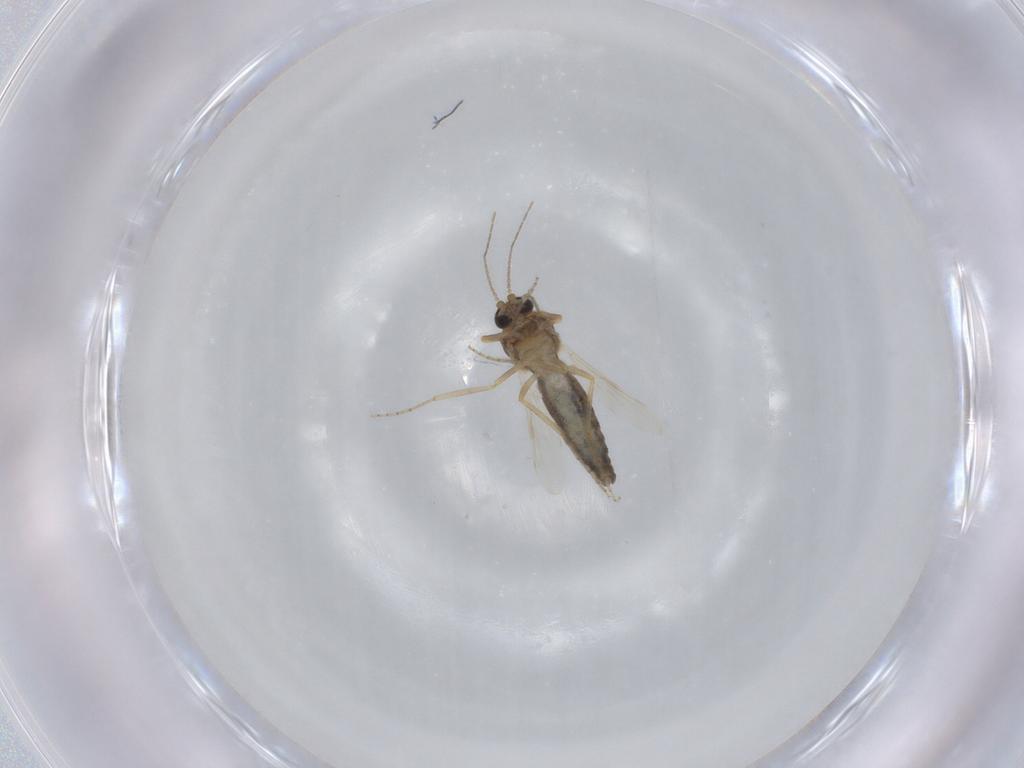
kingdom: Animalia
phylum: Arthropoda
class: Insecta
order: Diptera
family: Ceratopogonidae
